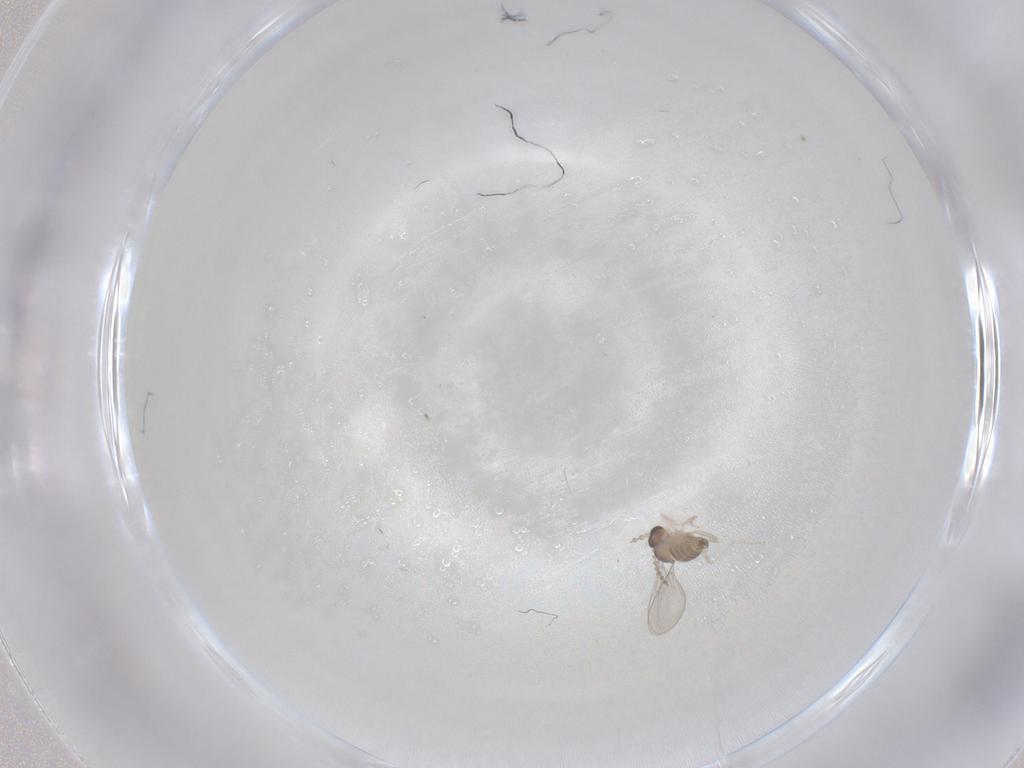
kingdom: Animalia
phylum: Arthropoda
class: Insecta
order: Diptera
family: Cecidomyiidae
